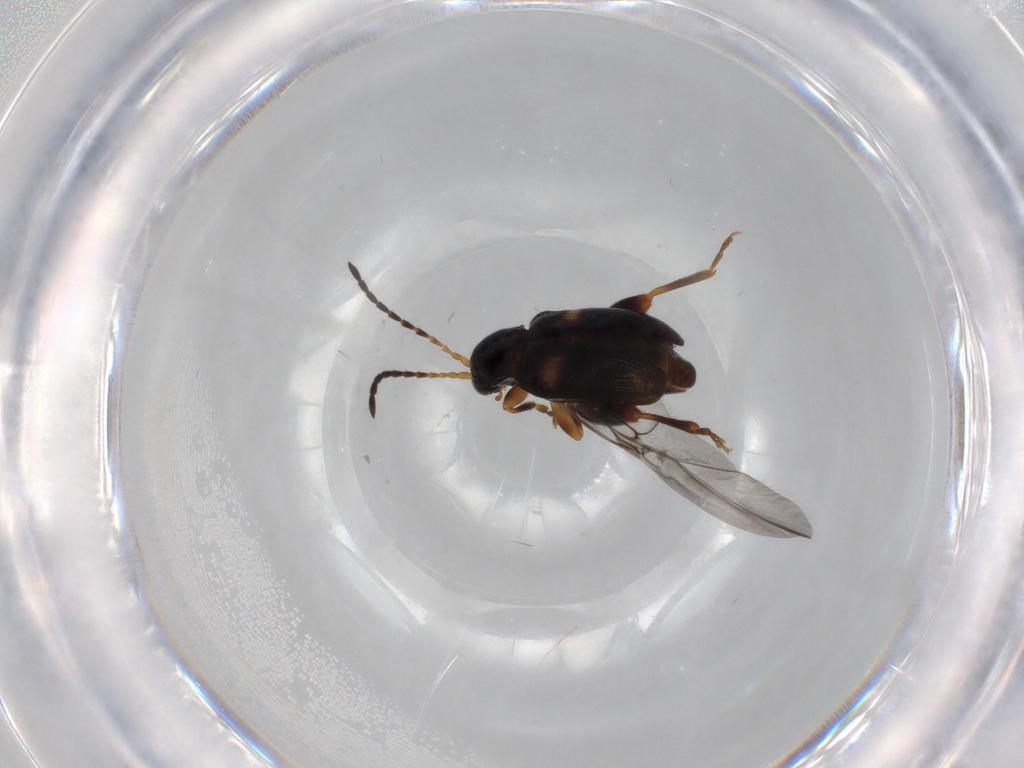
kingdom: Animalia
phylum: Arthropoda
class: Insecta
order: Coleoptera
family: Chrysomelidae
